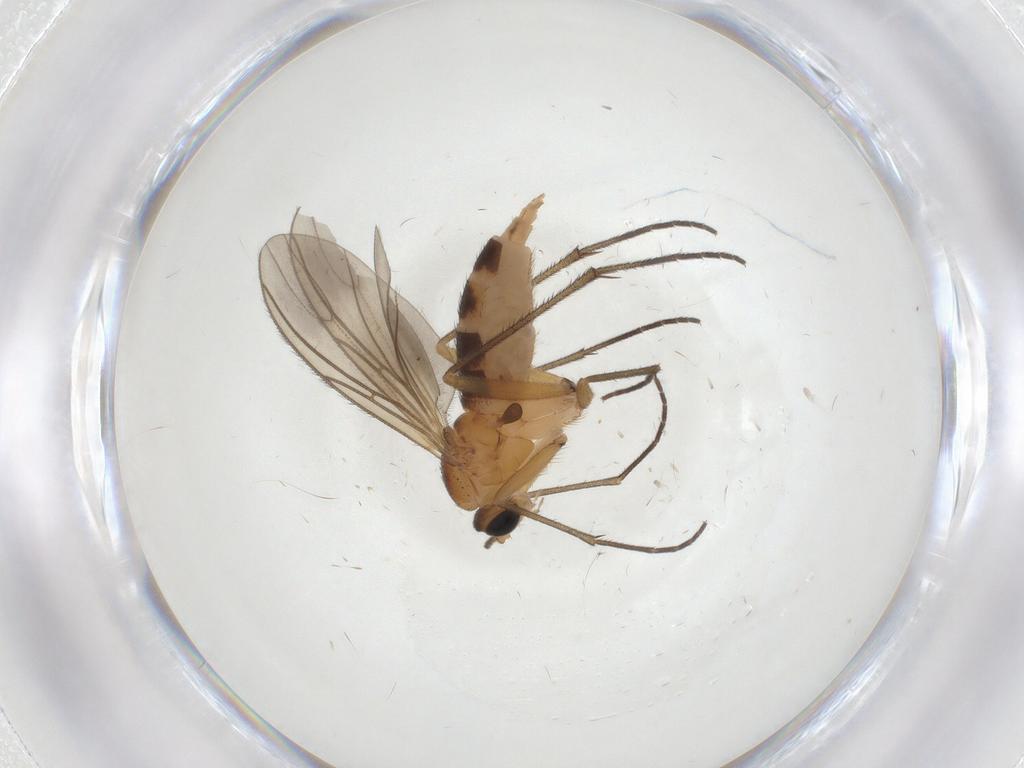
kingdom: Animalia
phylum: Arthropoda
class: Insecta
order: Diptera
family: Sciaridae
